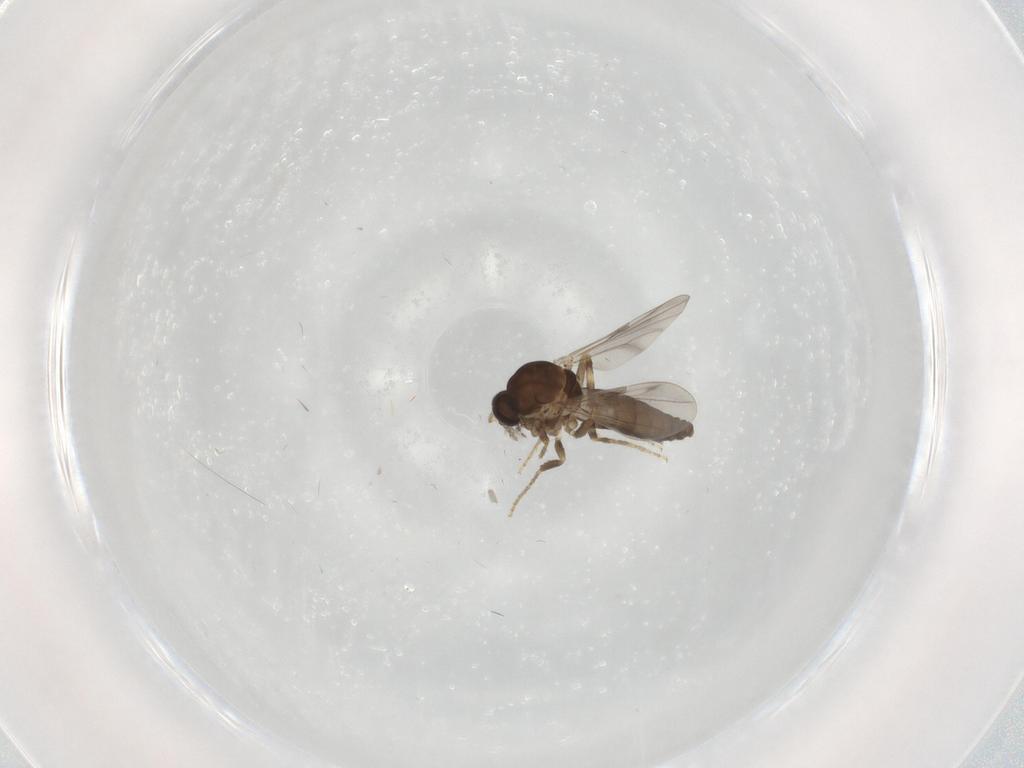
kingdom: Animalia
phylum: Arthropoda
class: Insecta
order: Diptera
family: Ceratopogonidae
